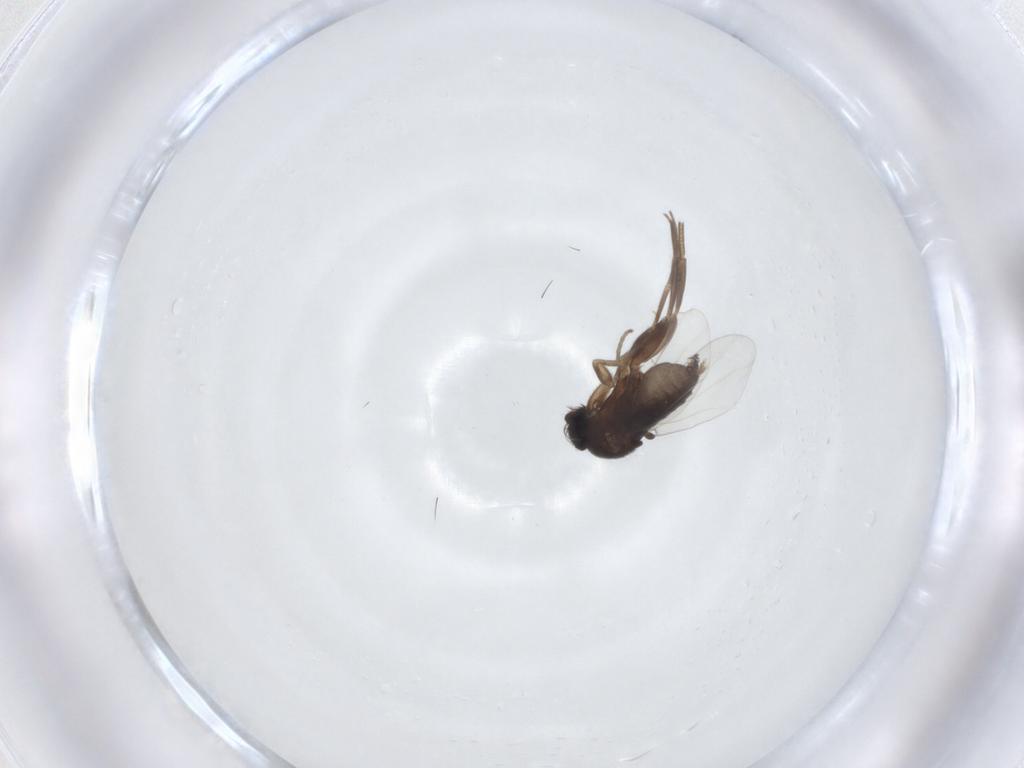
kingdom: Animalia
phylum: Arthropoda
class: Insecta
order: Diptera
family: Phoridae
